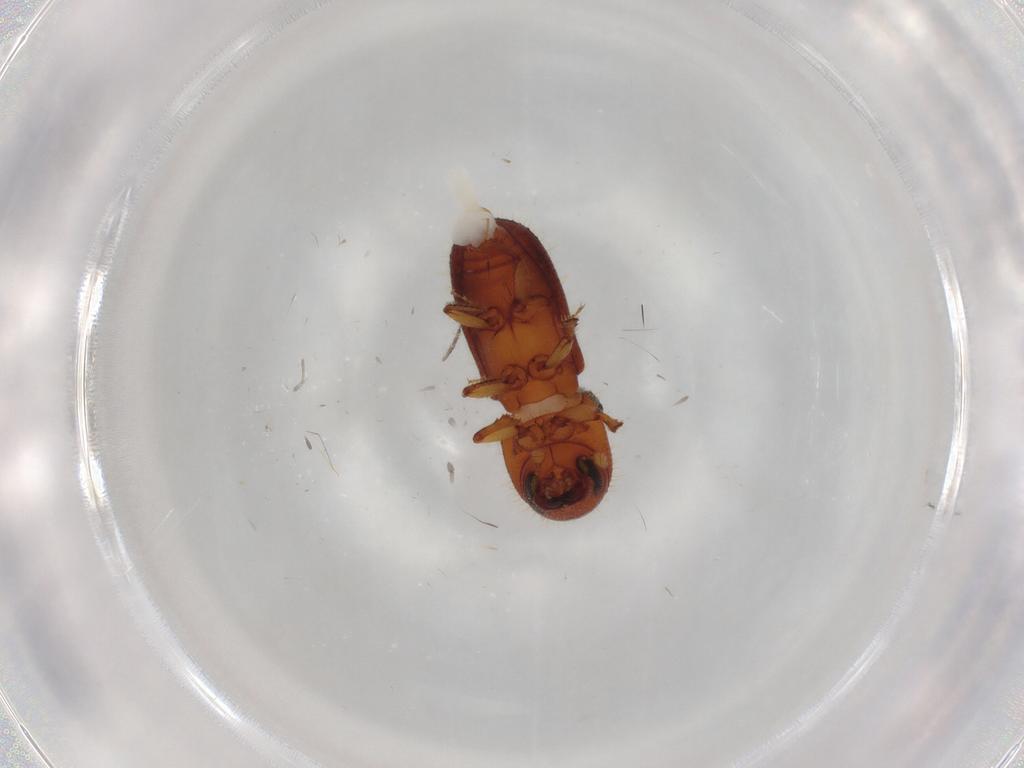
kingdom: Animalia
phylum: Arthropoda
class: Insecta
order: Coleoptera
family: Curculionidae
